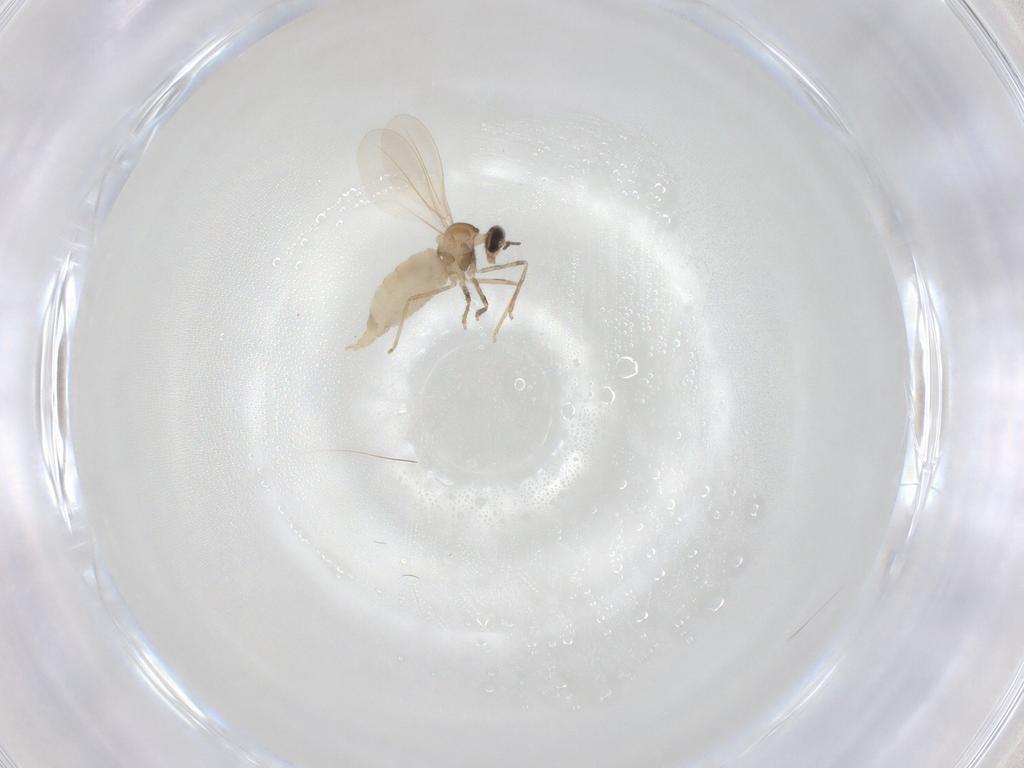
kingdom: Animalia
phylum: Arthropoda
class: Insecta
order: Diptera
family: Cecidomyiidae
